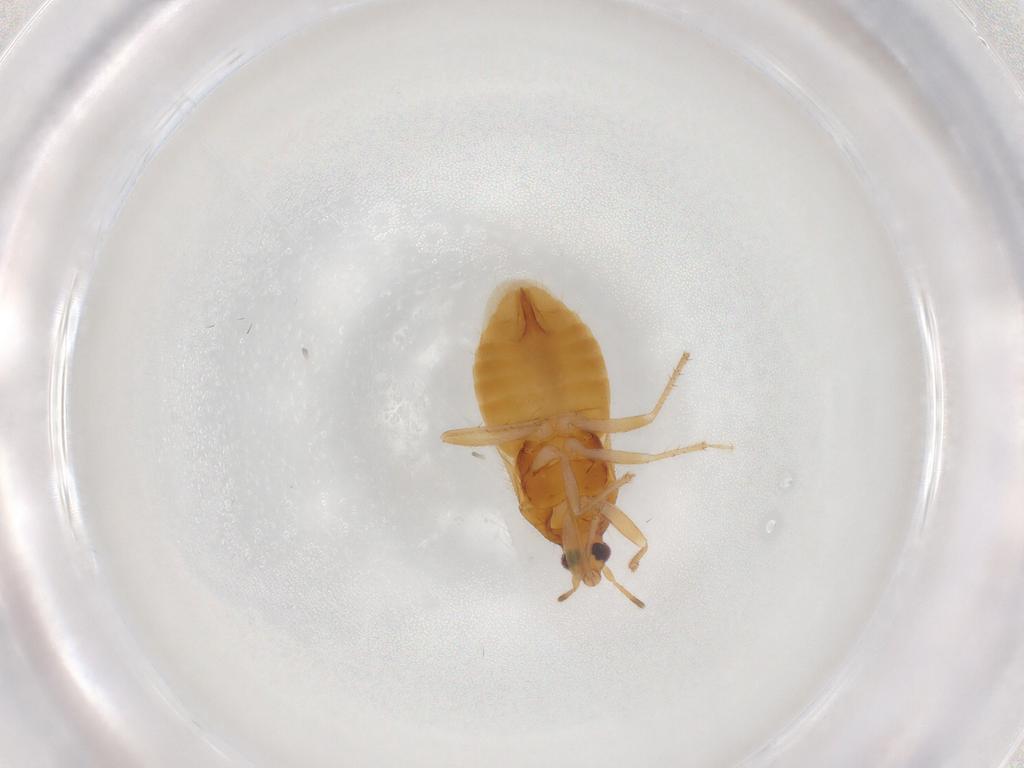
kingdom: Animalia
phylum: Arthropoda
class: Insecta
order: Hemiptera
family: Lasiochilidae
